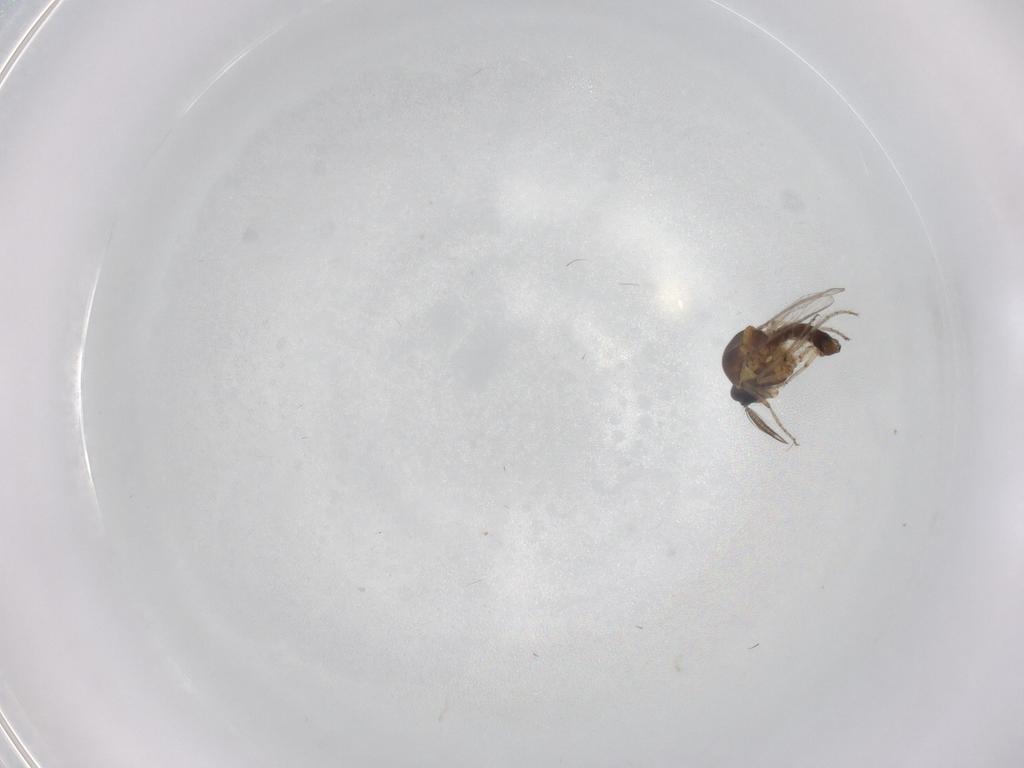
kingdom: Animalia
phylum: Arthropoda
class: Insecta
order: Diptera
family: Ceratopogonidae
